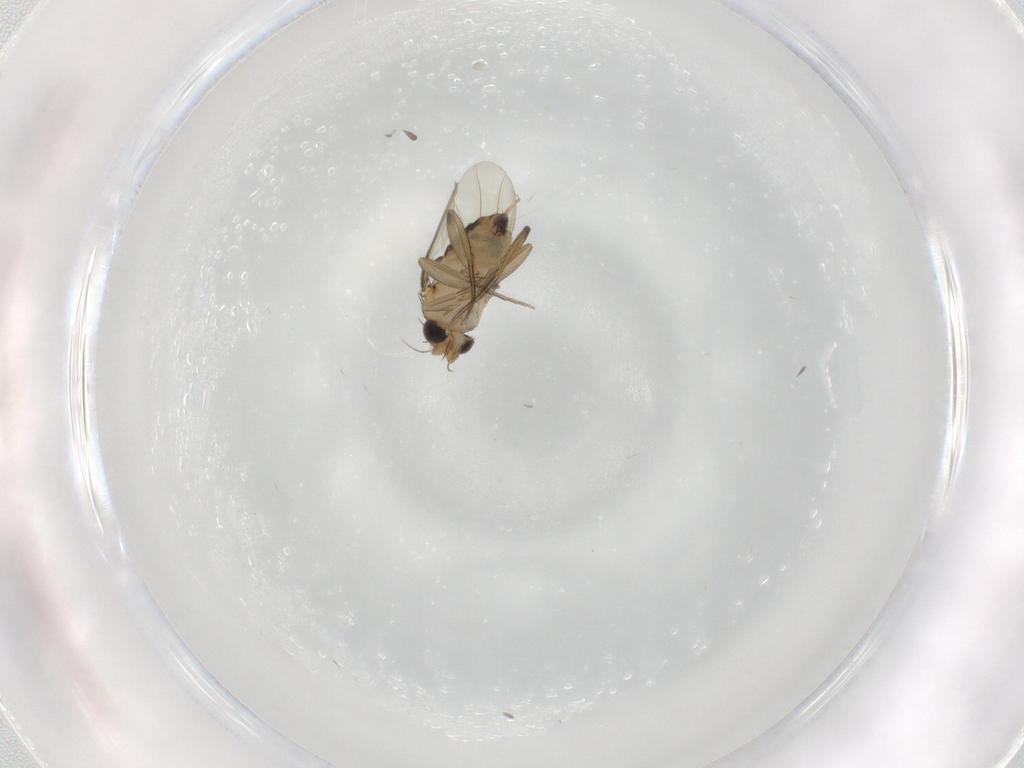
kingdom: Animalia
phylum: Arthropoda
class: Insecta
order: Diptera
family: Phoridae
